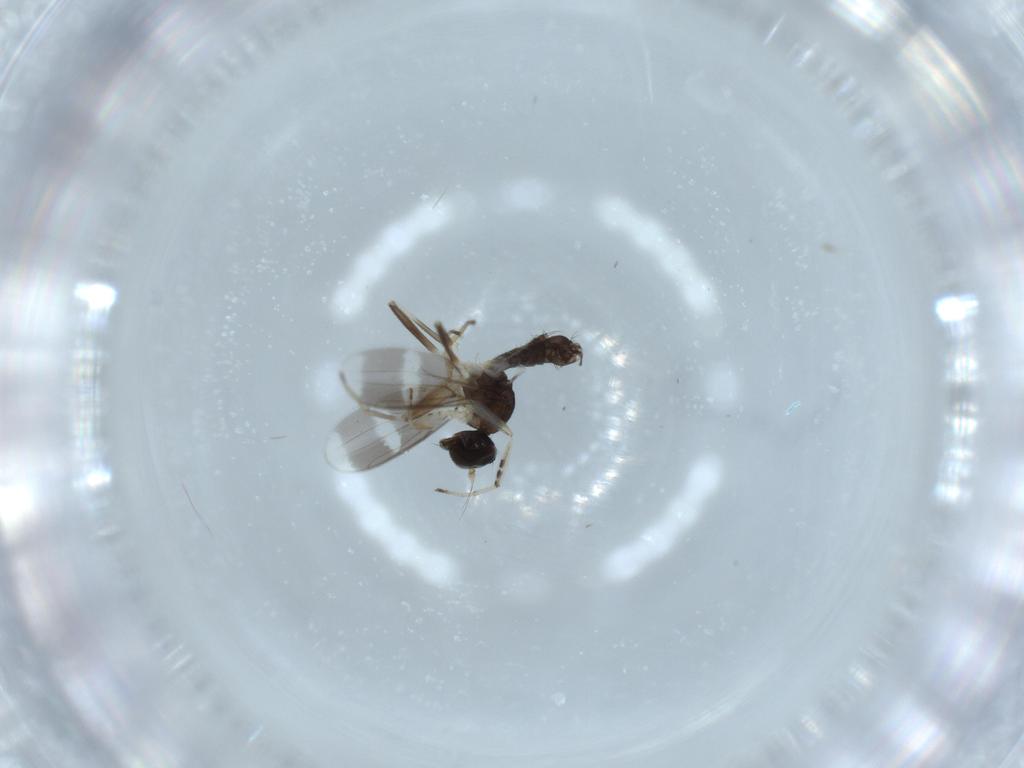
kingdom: Animalia
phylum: Arthropoda
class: Insecta
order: Diptera
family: Hybotidae
